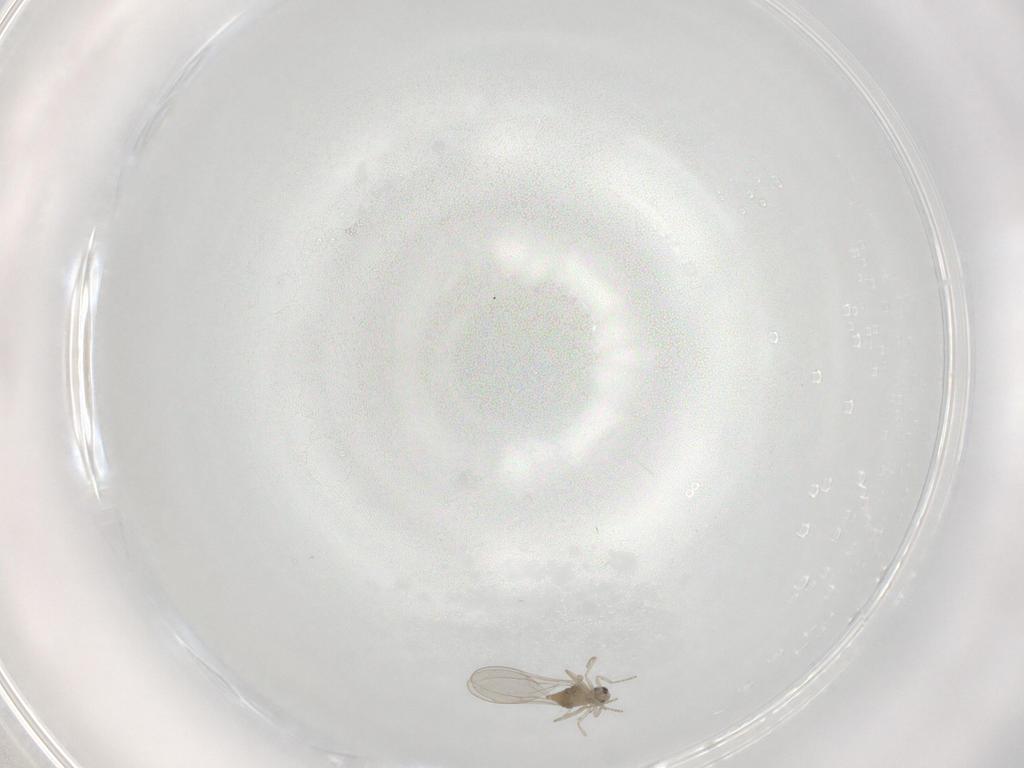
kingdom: Animalia
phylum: Arthropoda
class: Insecta
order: Diptera
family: Cecidomyiidae
